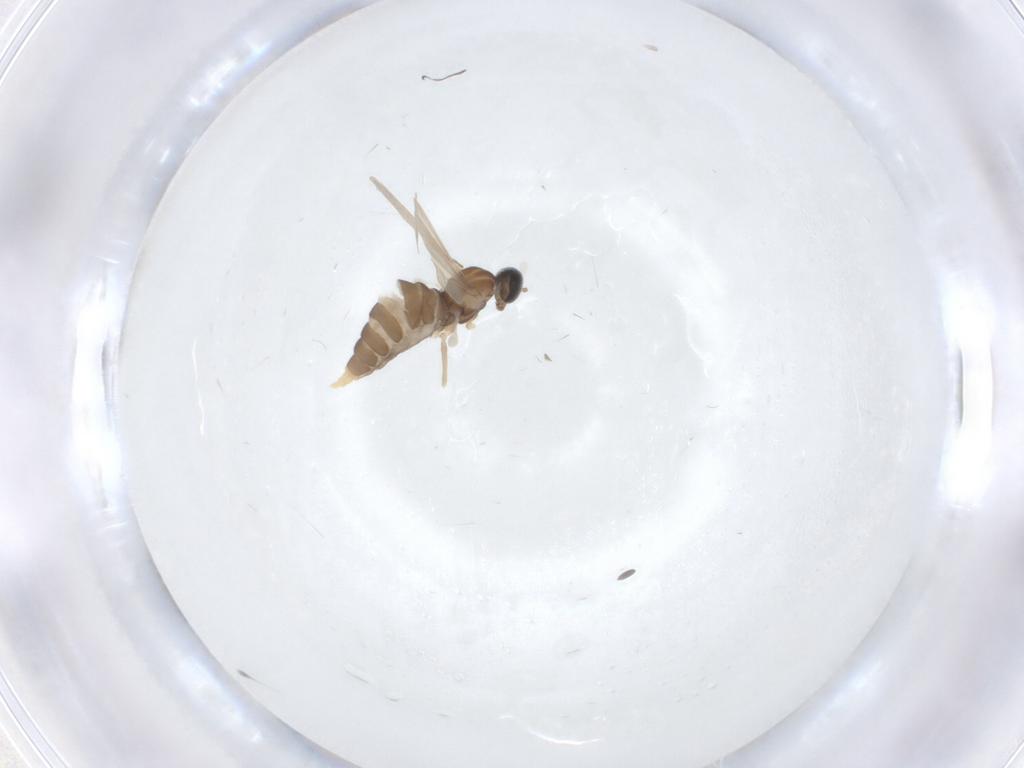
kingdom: Animalia
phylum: Arthropoda
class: Insecta
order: Diptera
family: Cecidomyiidae
